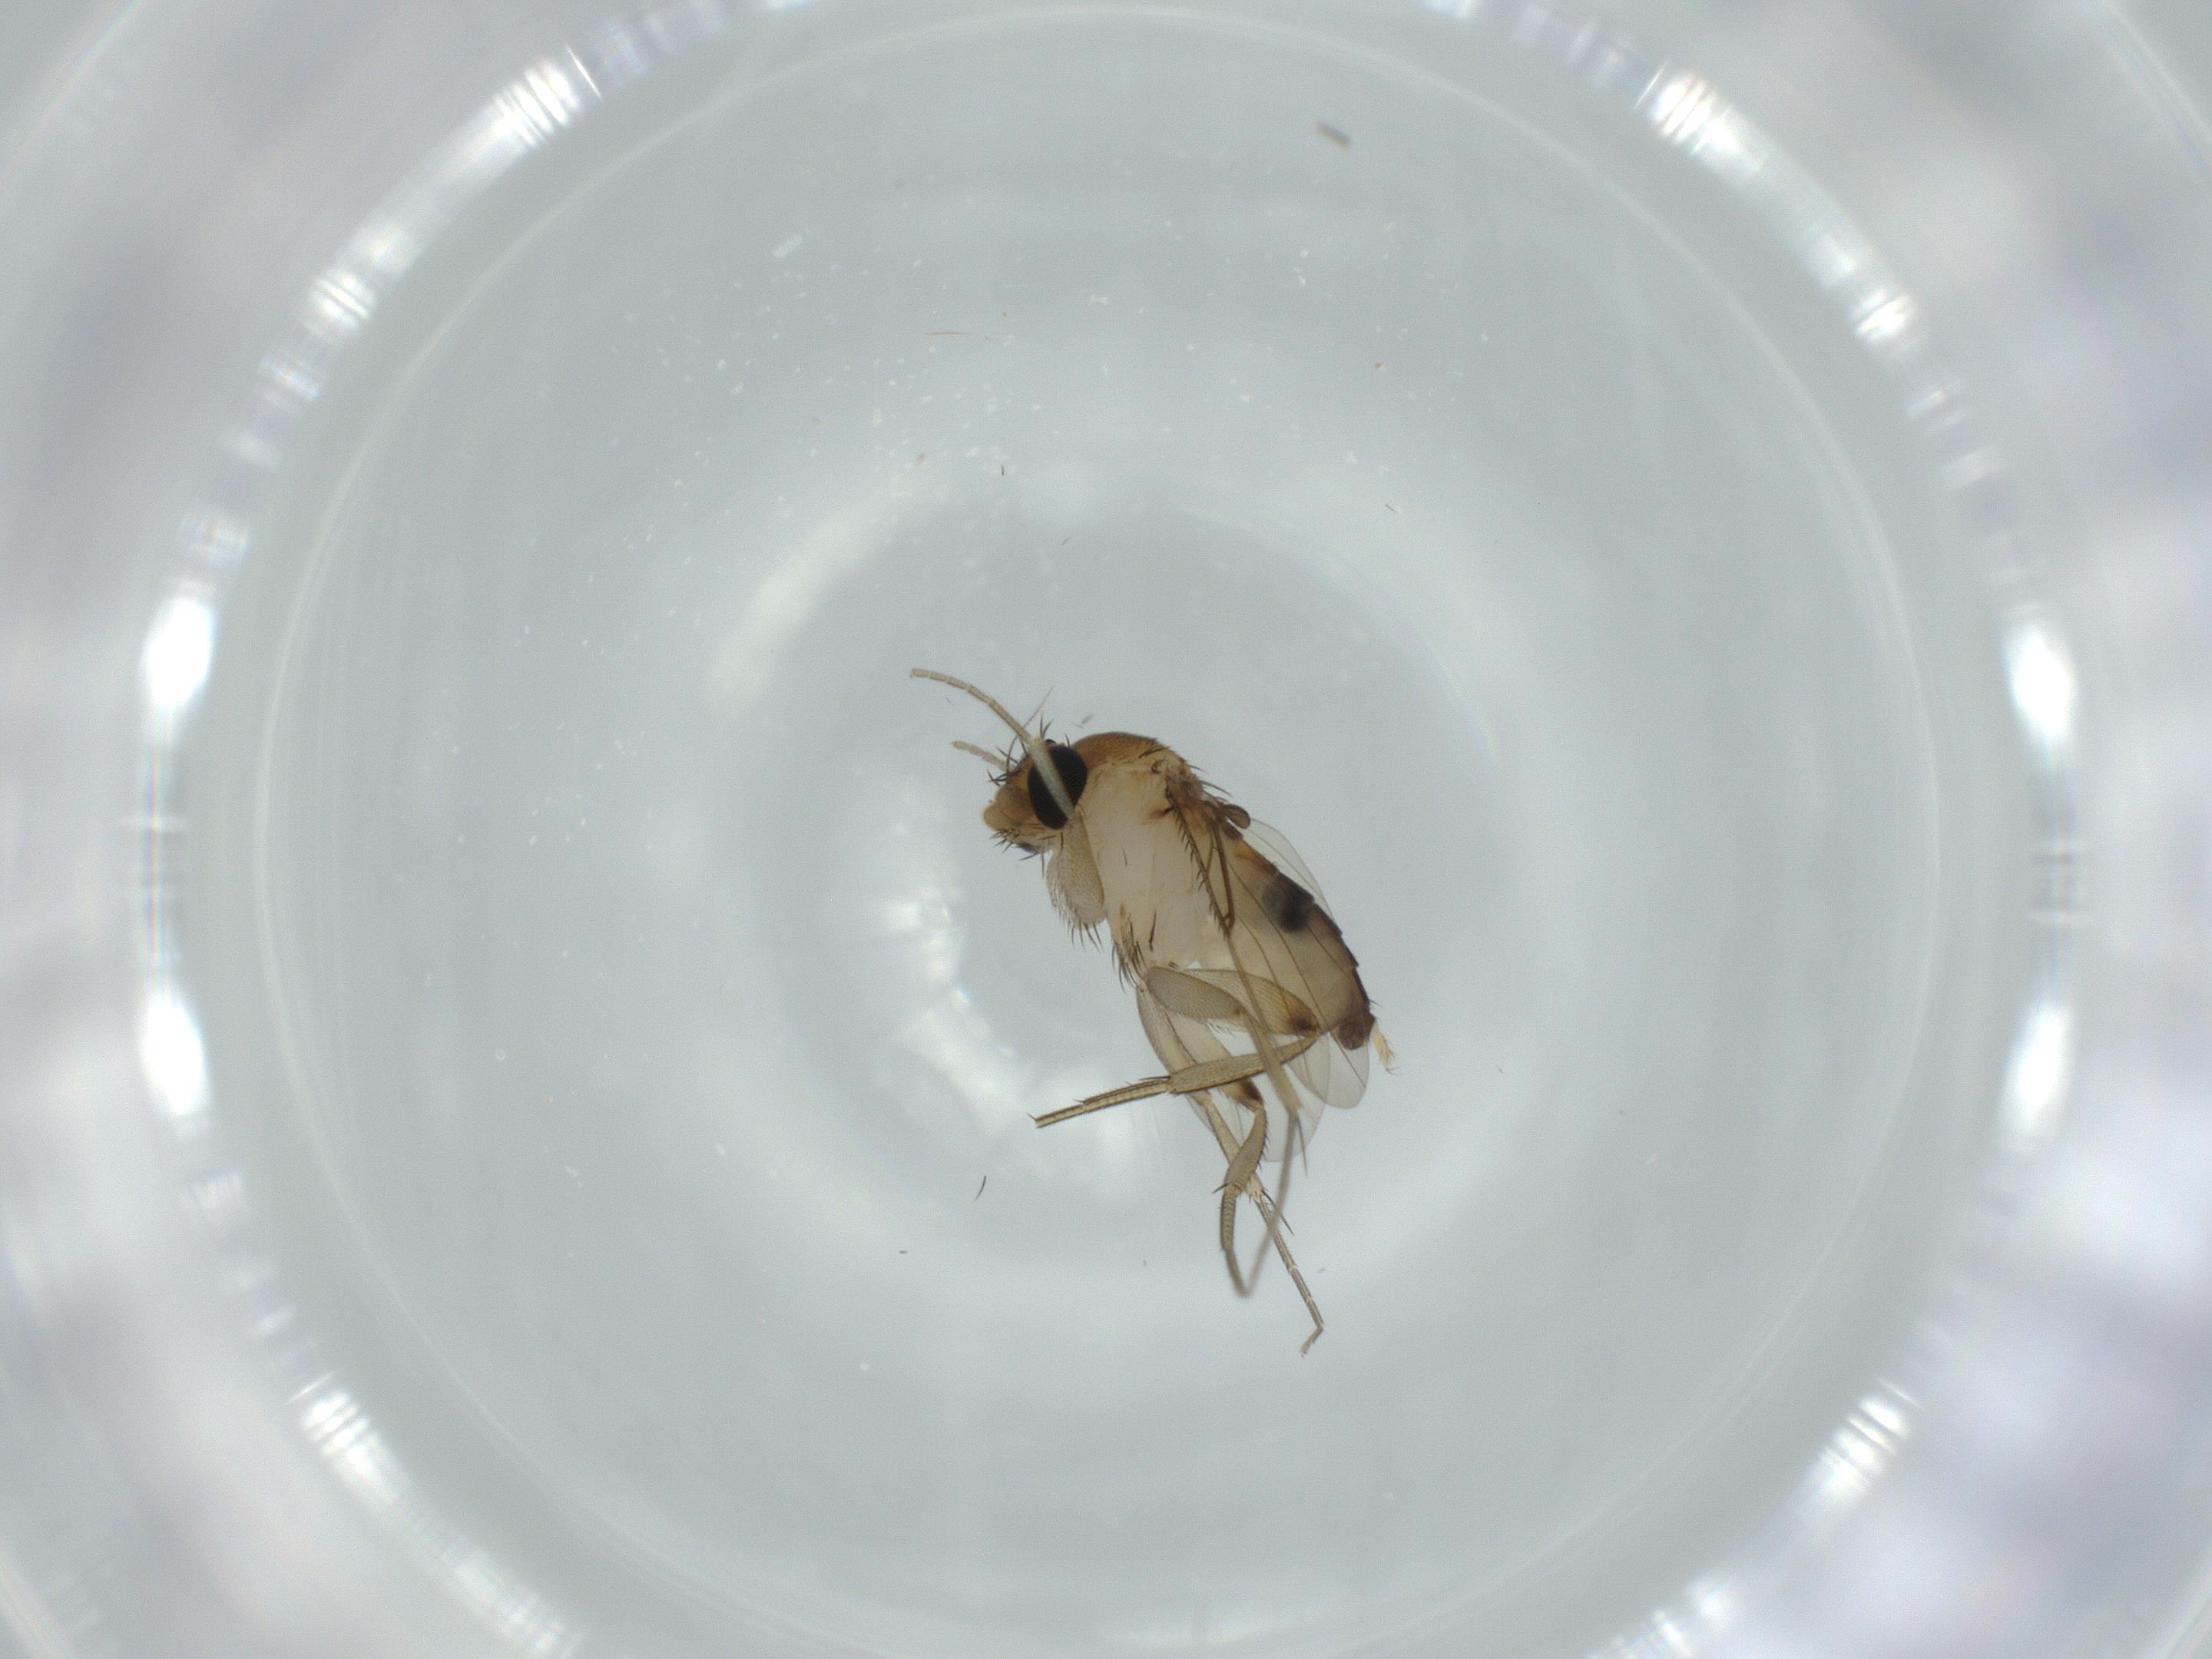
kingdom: Animalia
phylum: Arthropoda
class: Insecta
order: Diptera
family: Phoridae
